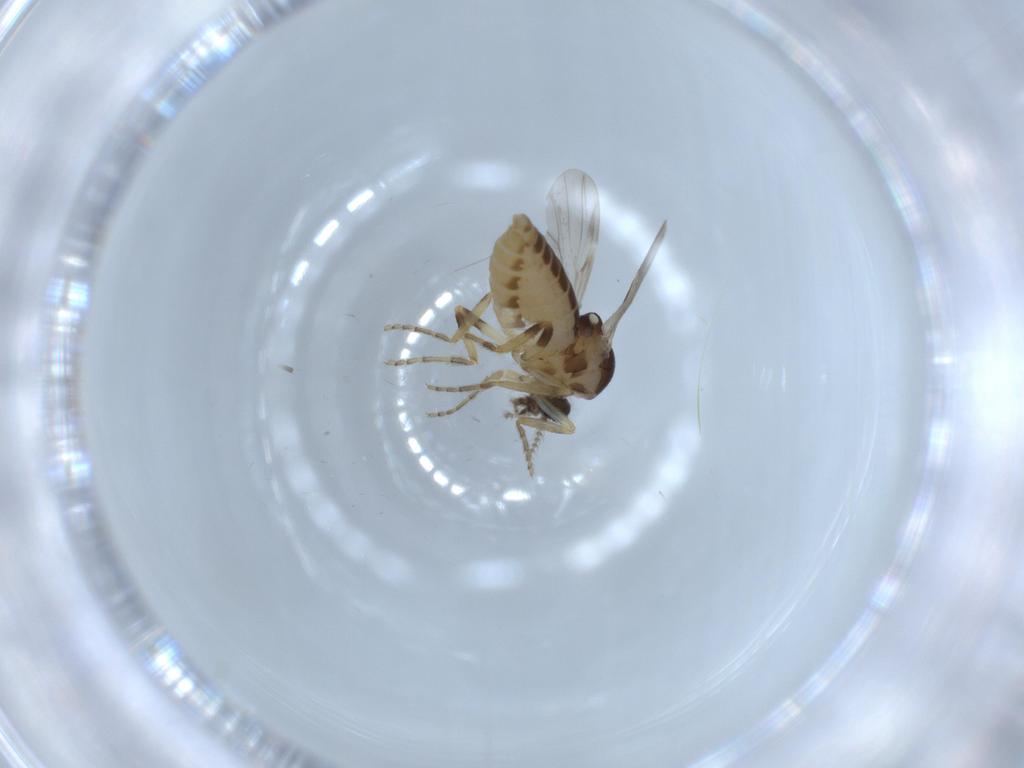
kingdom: Animalia
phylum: Arthropoda
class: Insecta
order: Diptera
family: Ceratopogonidae
